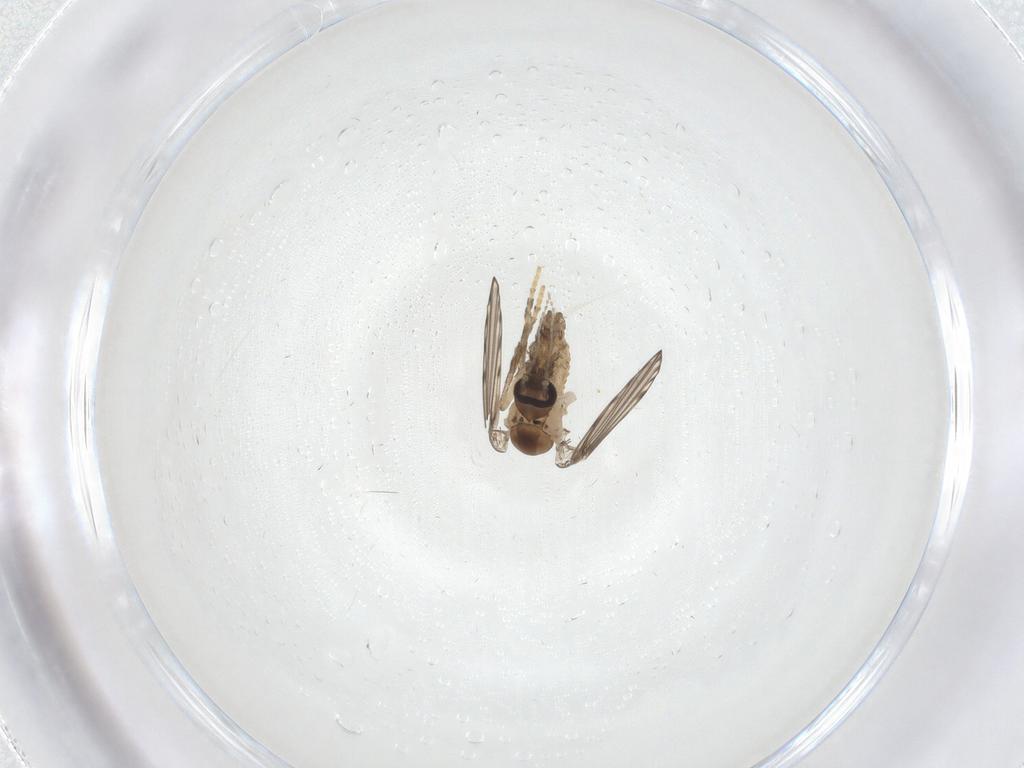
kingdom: Animalia
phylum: Arthropoda
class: Insecta
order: Diptera
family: Psychodidae
